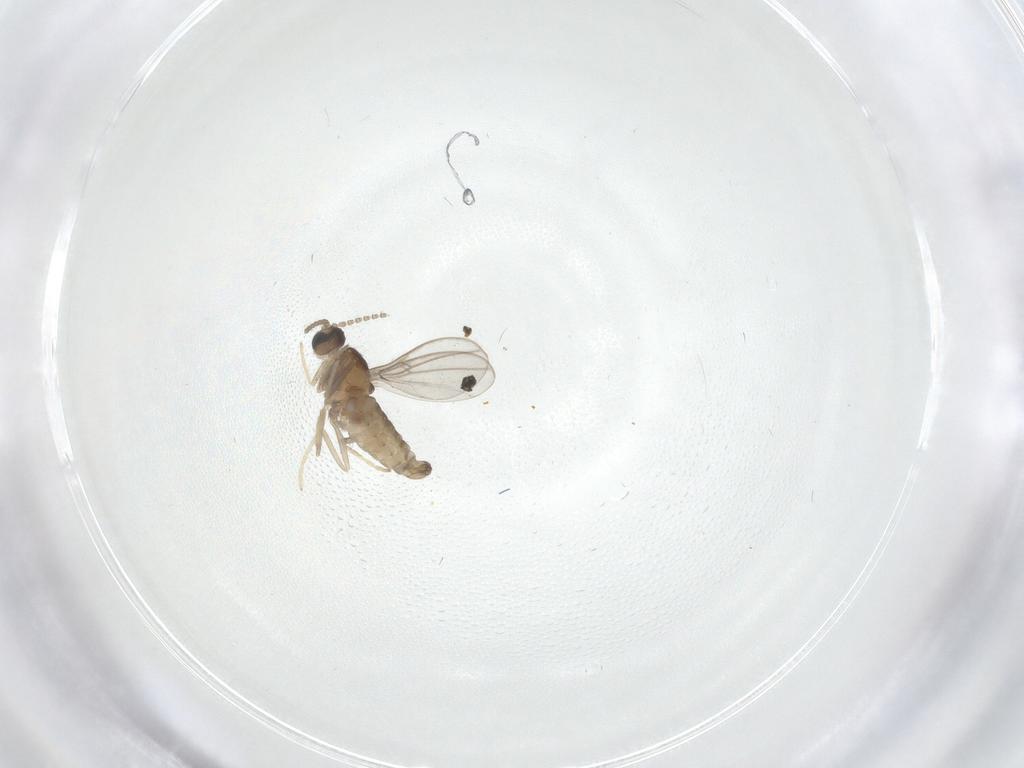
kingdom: Animalia
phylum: Arthropoda
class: Insecta
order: Diptera
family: Cecidomyiidae
